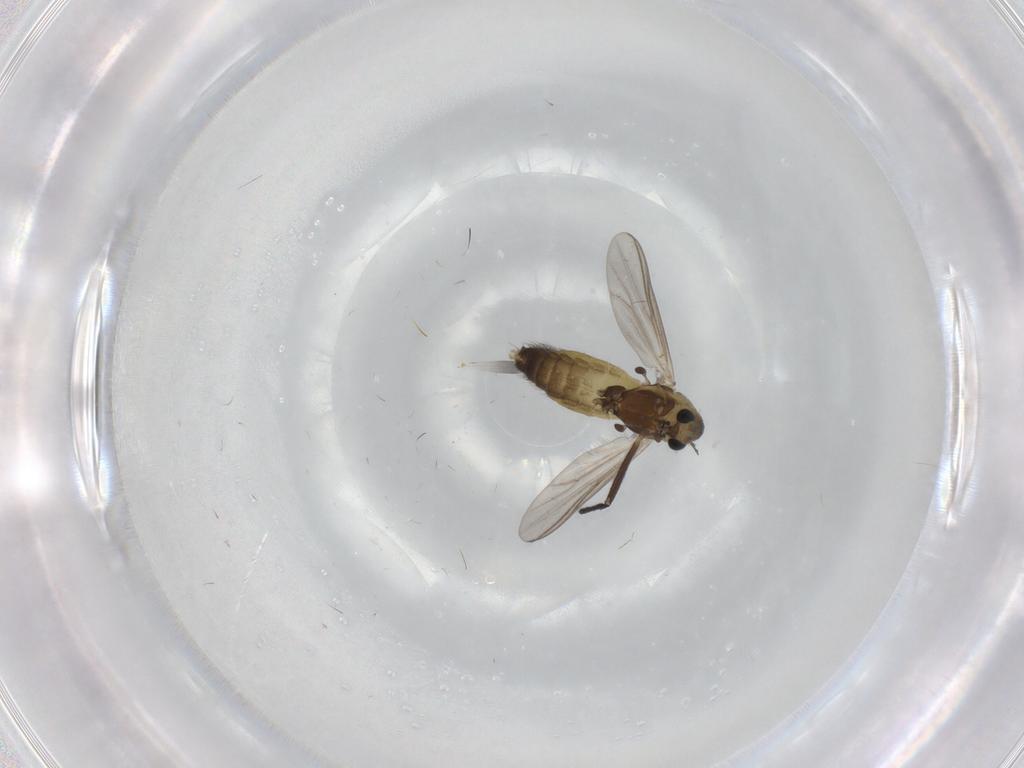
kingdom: Animalia
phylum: Arthropoda
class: Insecta
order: Diptera
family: Chironomidae
